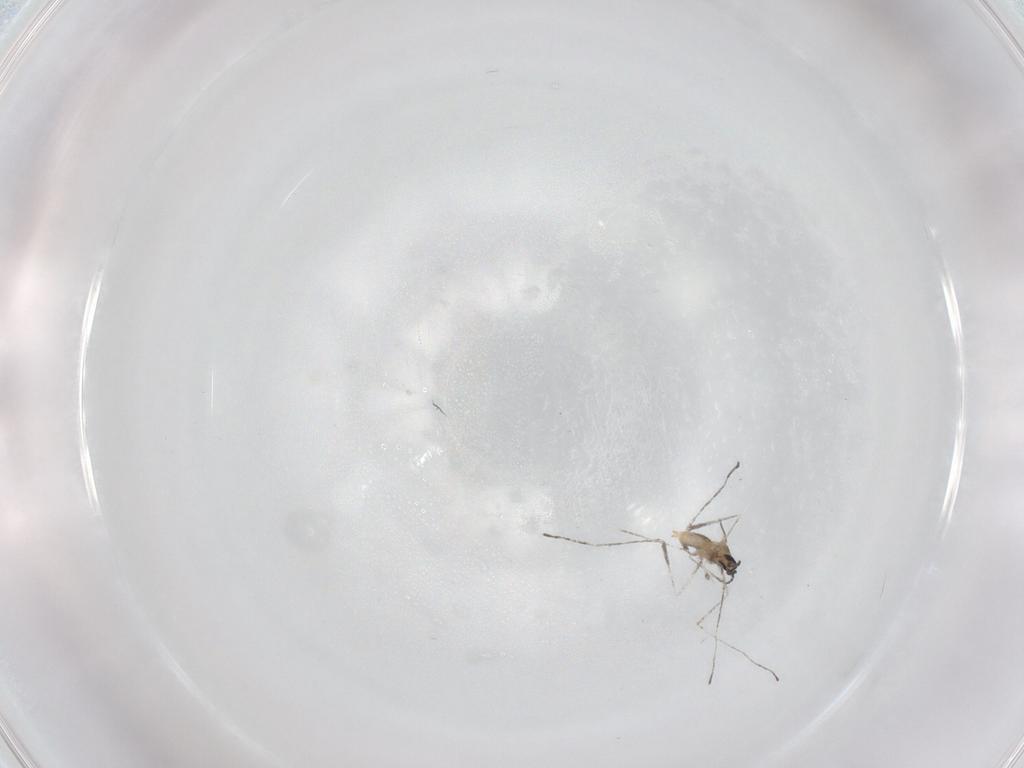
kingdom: Animalia
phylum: Arthropoda
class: Insecta
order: Diptera
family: Cecidomyiidae
